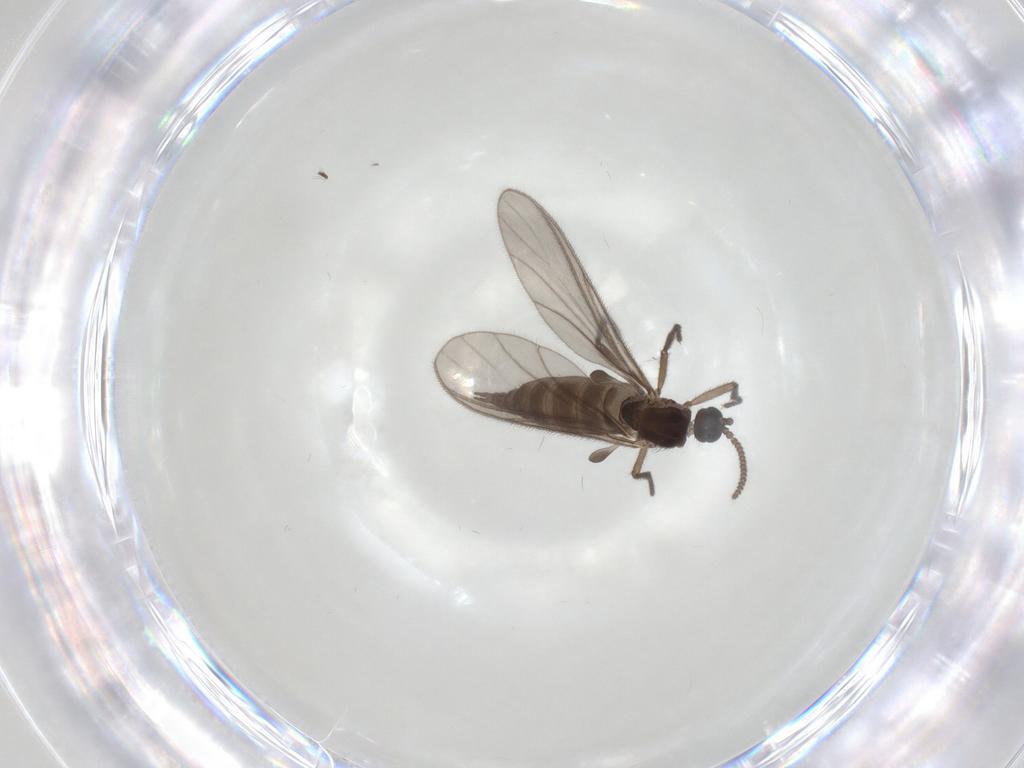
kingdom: Animalia
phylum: Arthropoda
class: Insecta
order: Diptera
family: Sciaridae
